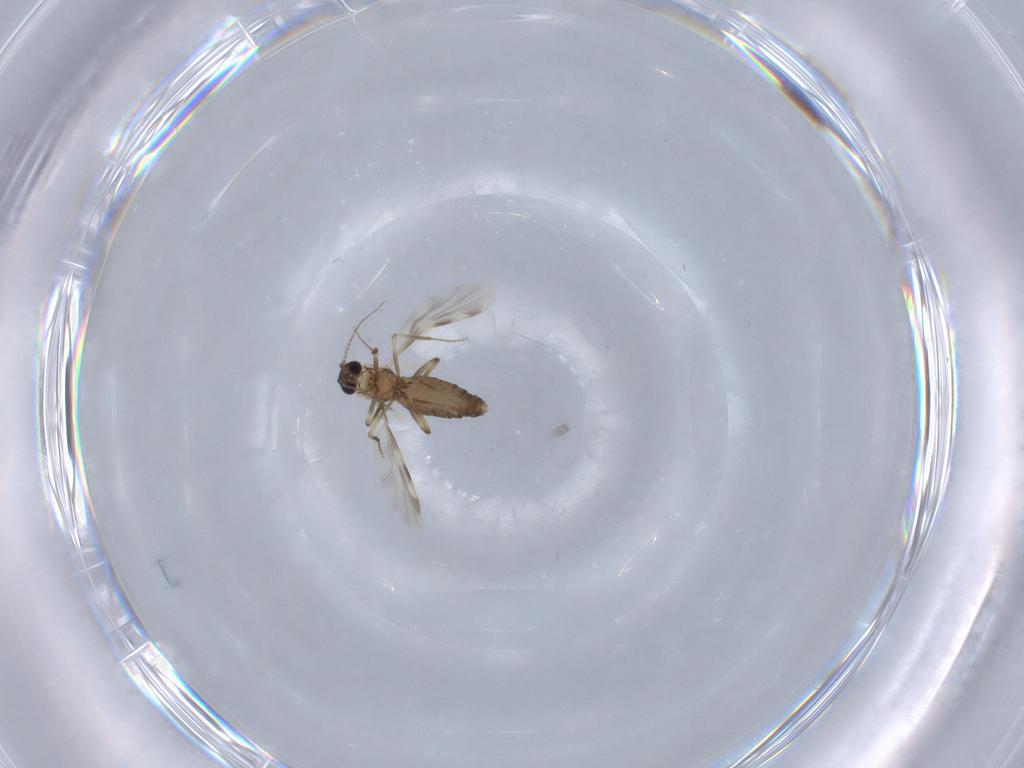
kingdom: Animalia
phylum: Arthropoda
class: Insecta
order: Diptera
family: Ceratopogonidae
